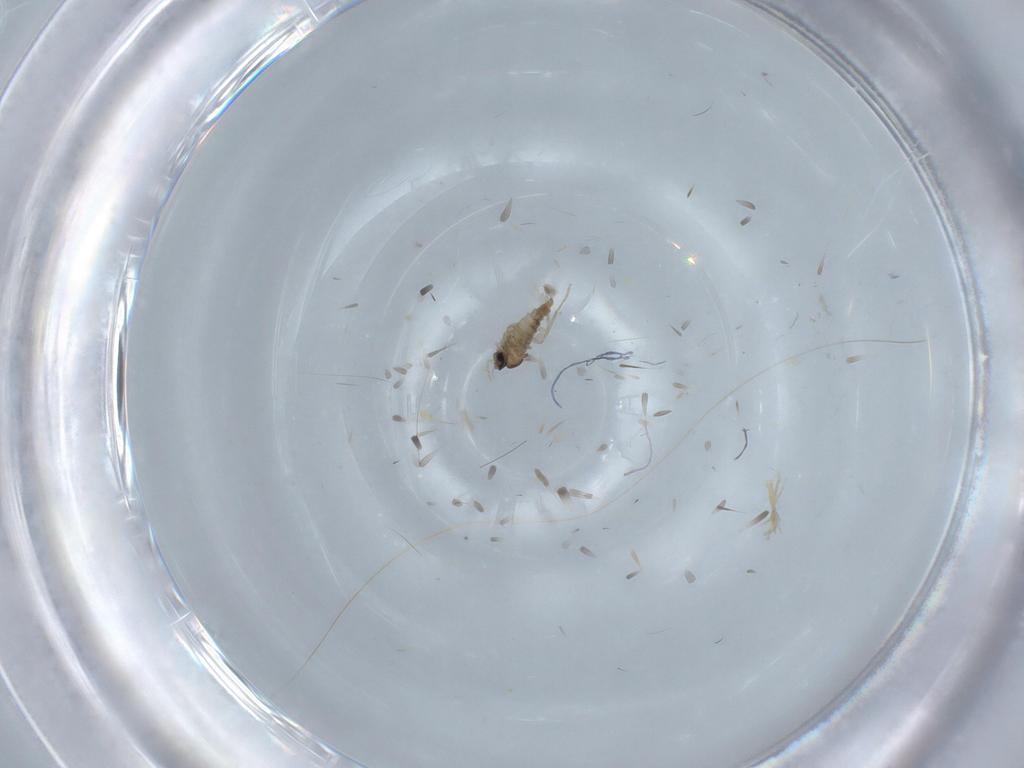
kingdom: Animalia
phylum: Arthropoda
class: Insecta
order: Diptera
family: Cecidomyiidae
